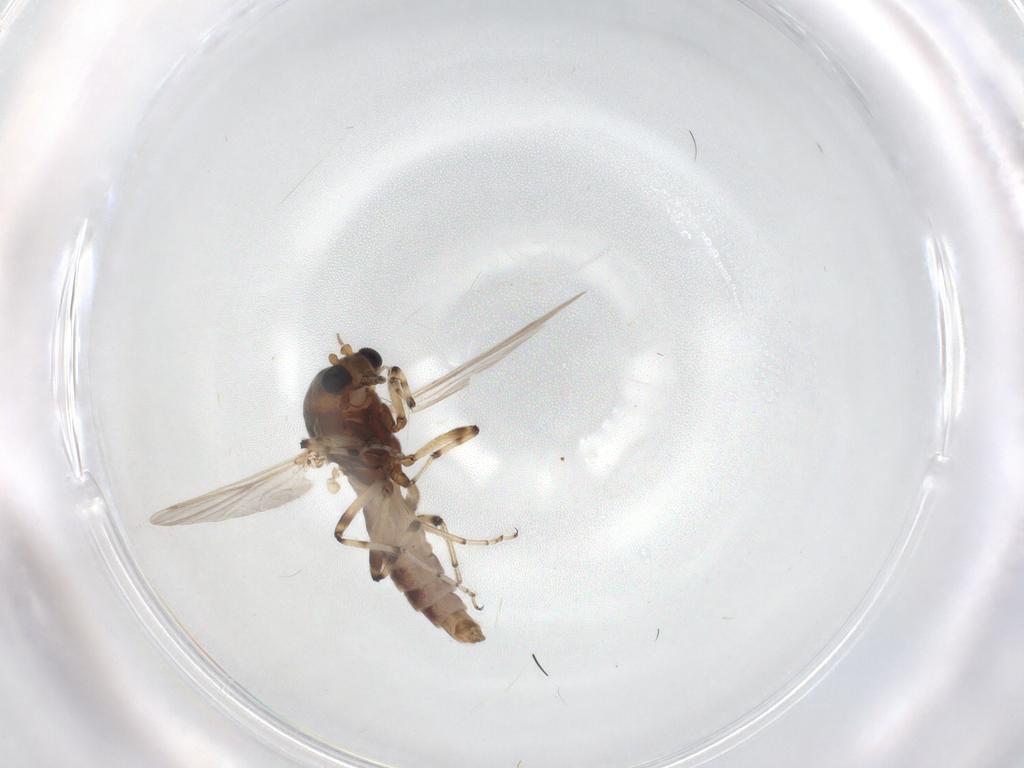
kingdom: Animalia
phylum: Arthropoda
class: Insecta
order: Diptera
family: Ceratopogonidae
